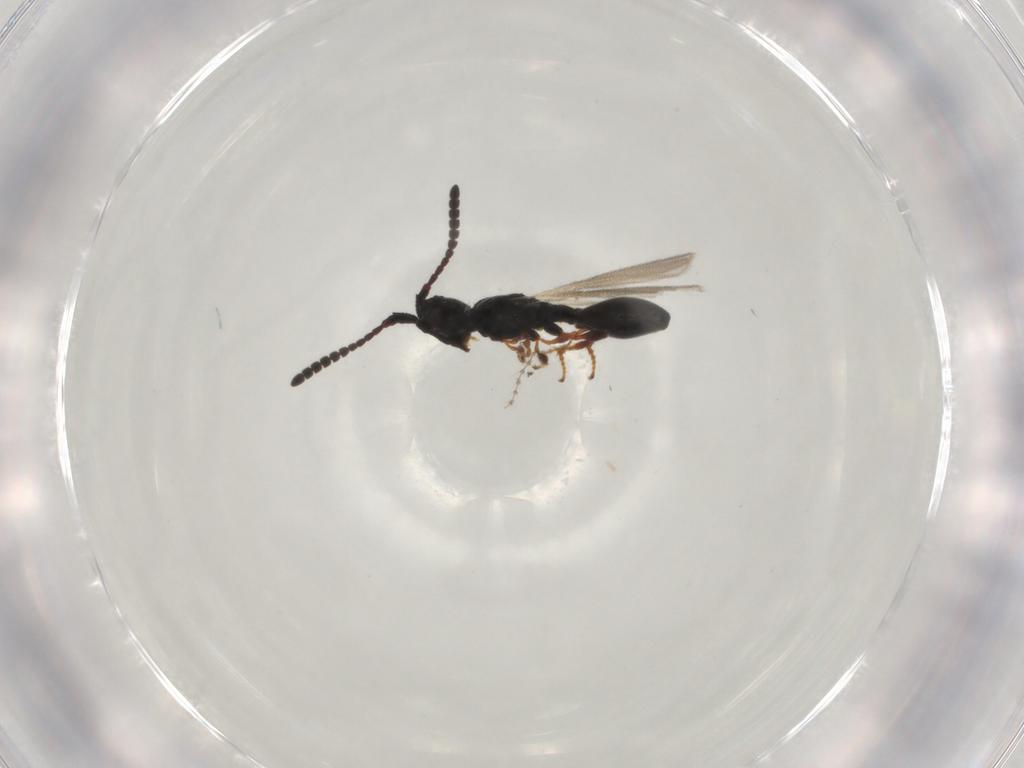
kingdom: Animalia
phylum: Arthropoda
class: Insecta
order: Hymenoptera
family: Diapriidae
